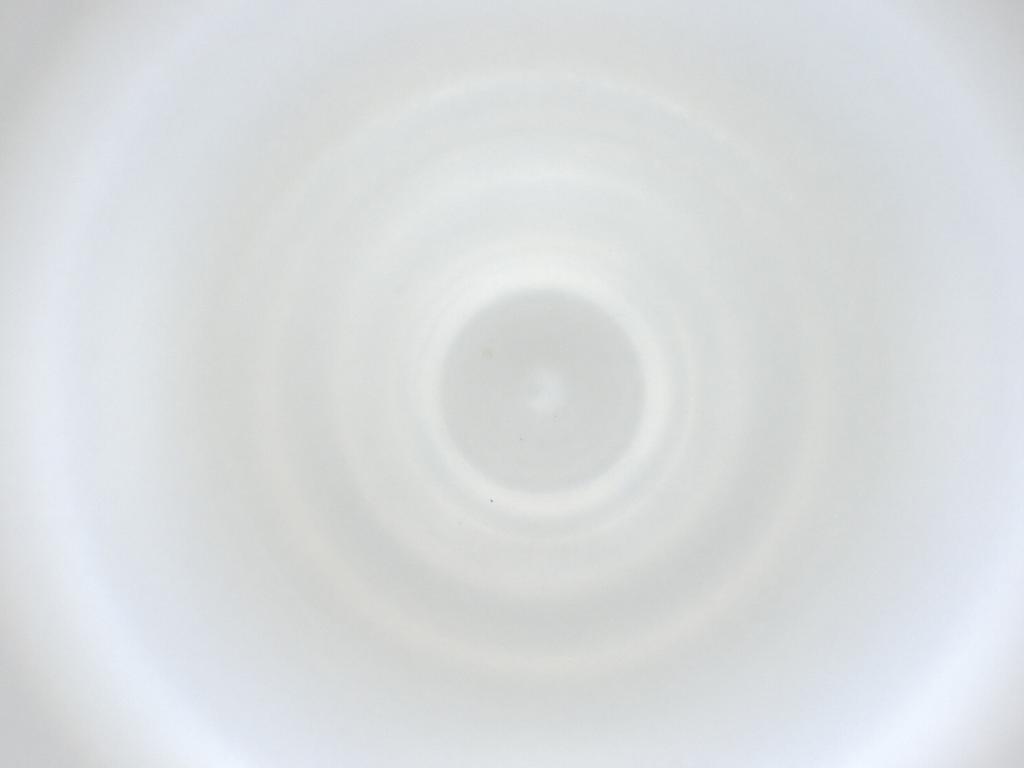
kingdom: Animalia
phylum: Arthropoda
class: Insecta
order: Diptera
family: Cecidomyiidae
